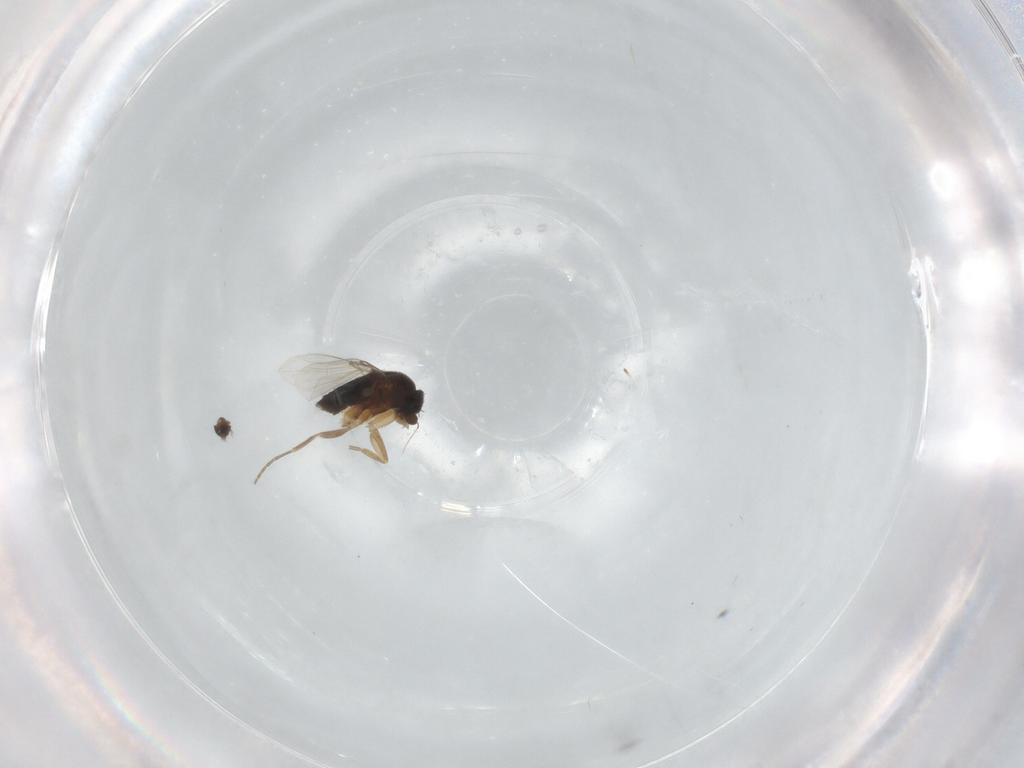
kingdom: Animalia
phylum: Arthropoda
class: Insecta
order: Diptera
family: Phoridae
